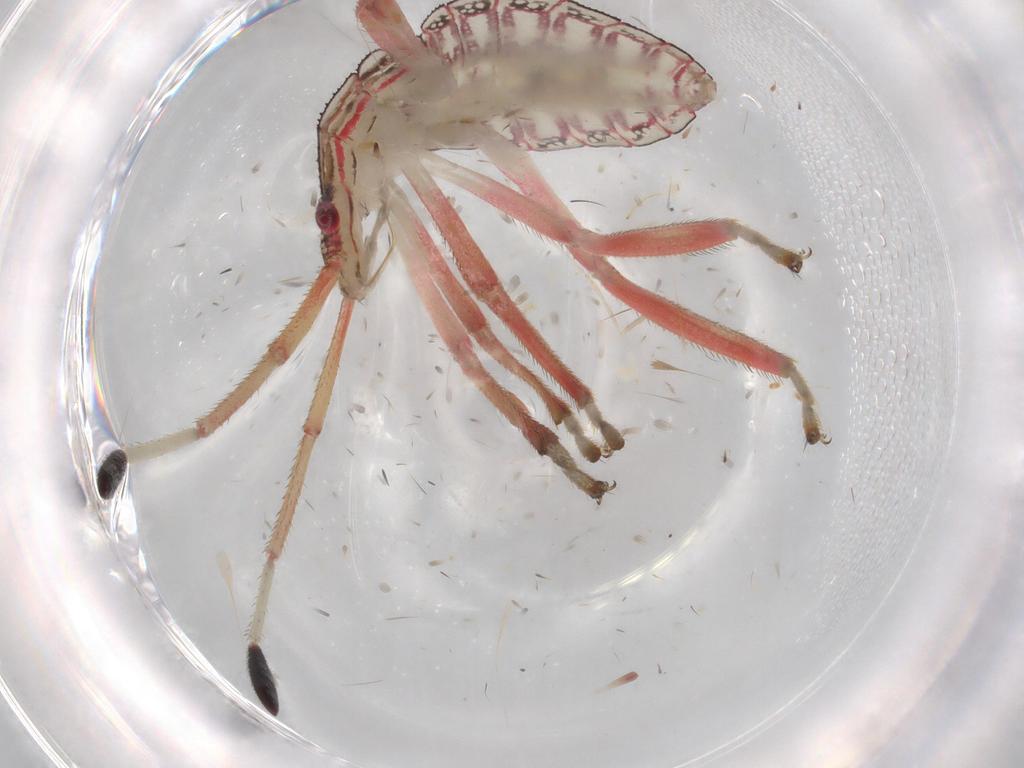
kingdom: Animalia
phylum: Arthropoda
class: Insecta
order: Hemiptera
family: Coreidae
